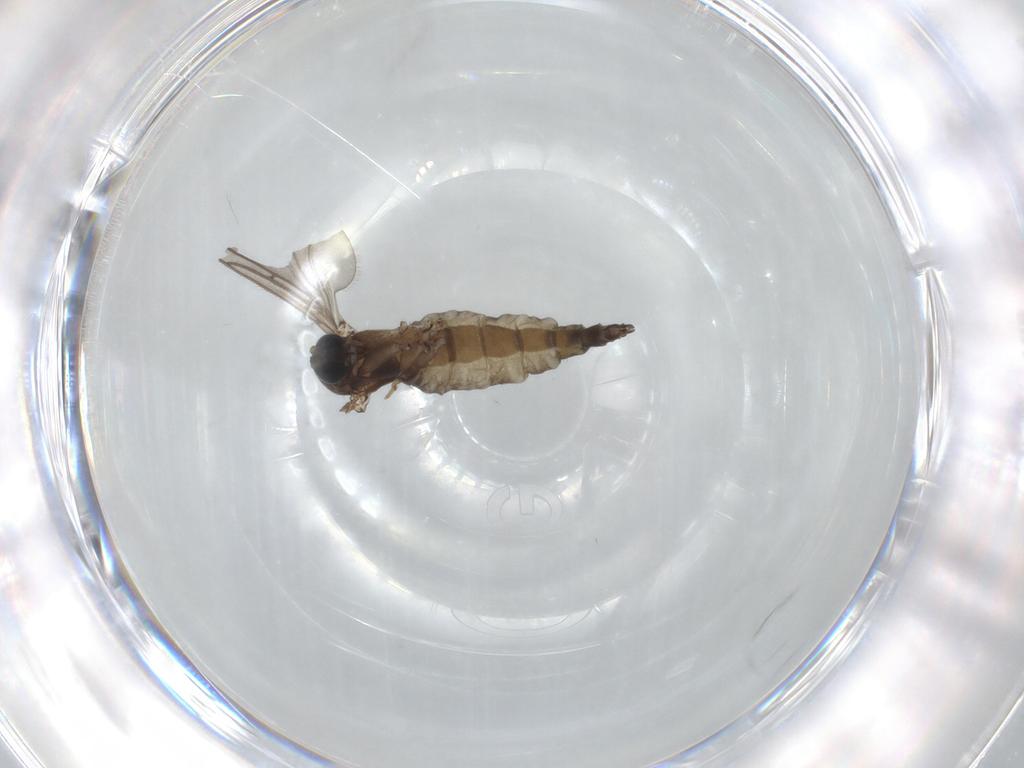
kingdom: Animalia
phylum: Arthropoda
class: Insecta
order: Diptera
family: Sciaridae
